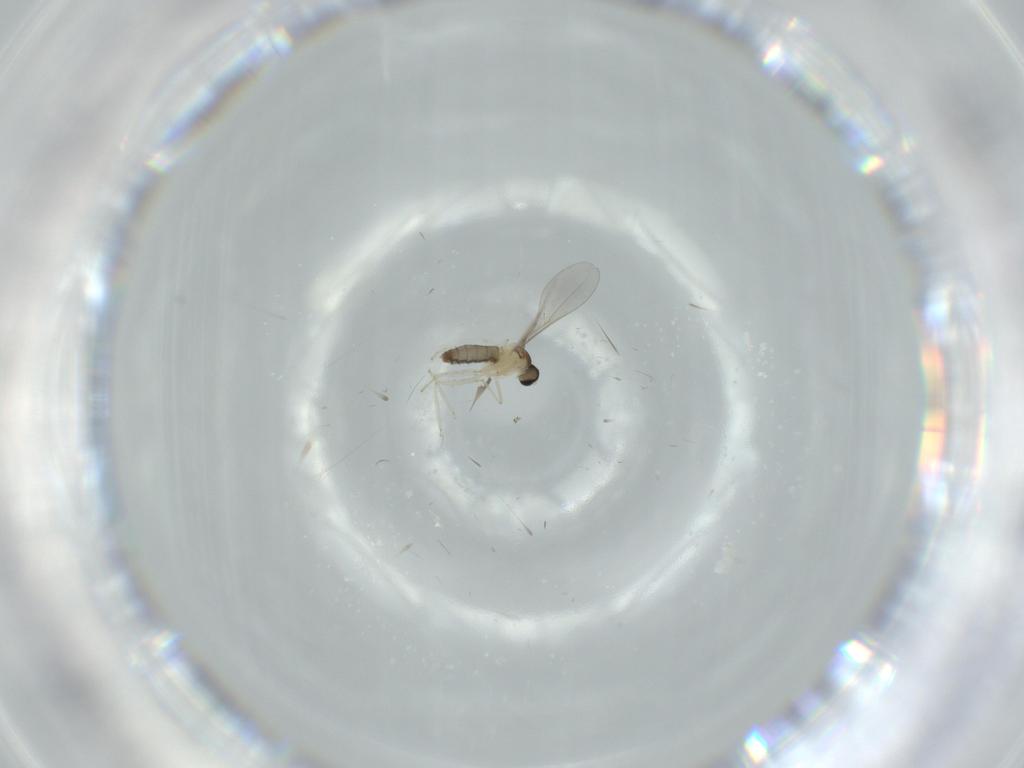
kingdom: Animalia
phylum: Arthropoda
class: Insecta
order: Diptera
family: Cecidomyiidae
